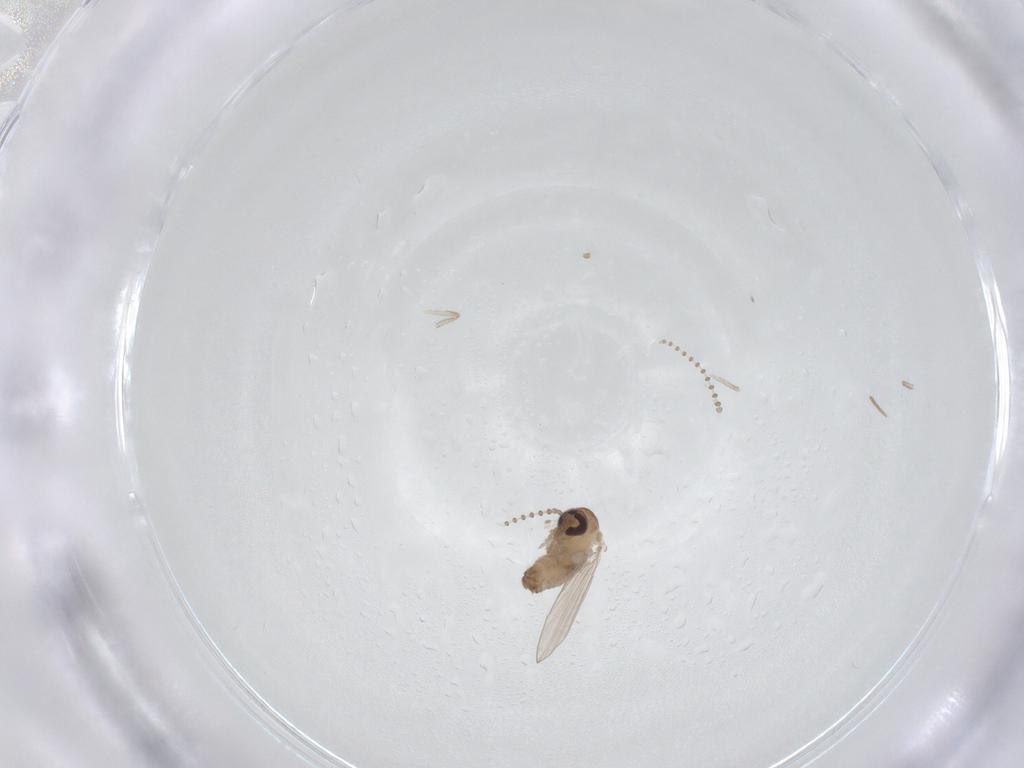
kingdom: Animalia
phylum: Arthropoda
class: Insecta
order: Diptera
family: Psychodidae
